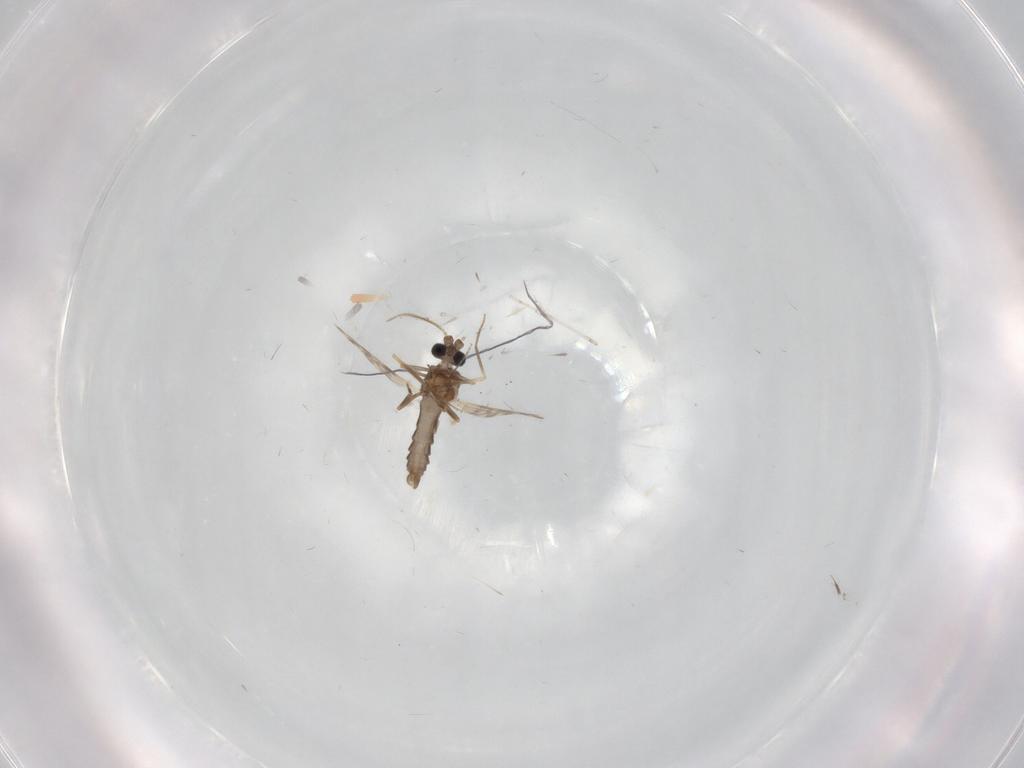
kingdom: Animalia
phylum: Arthropoda
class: Insecta
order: Diptera
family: Ceratopogonidae
